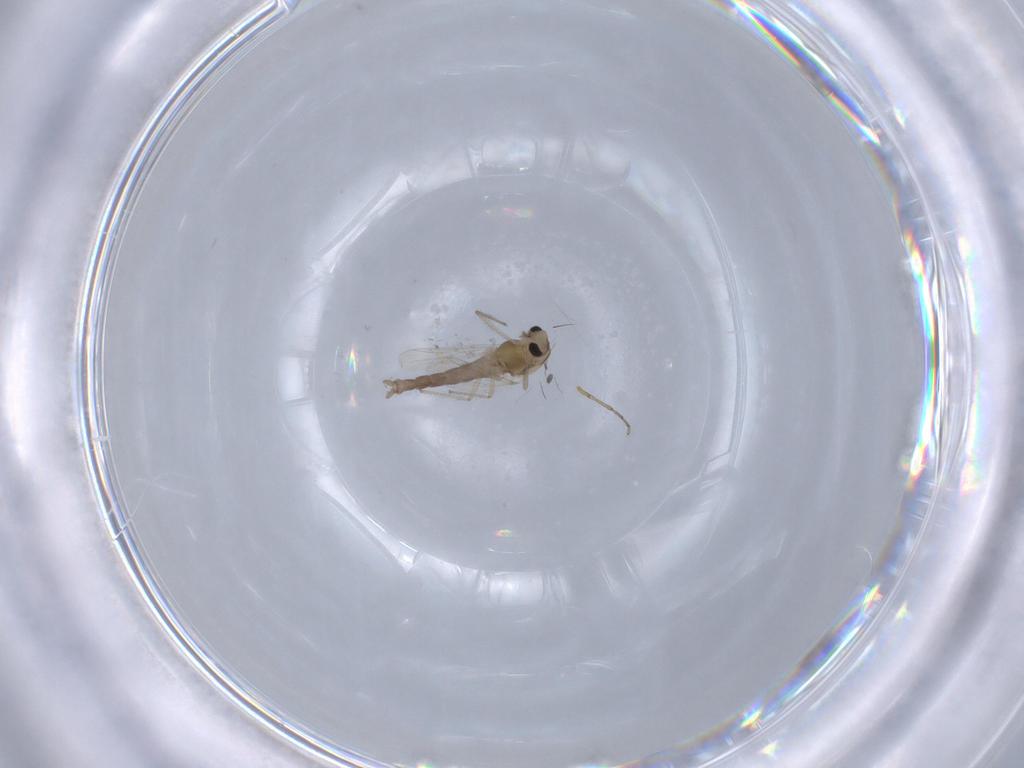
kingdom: Animalia
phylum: Arthropoda
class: Insecta
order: Diptera
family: Chironomidae
